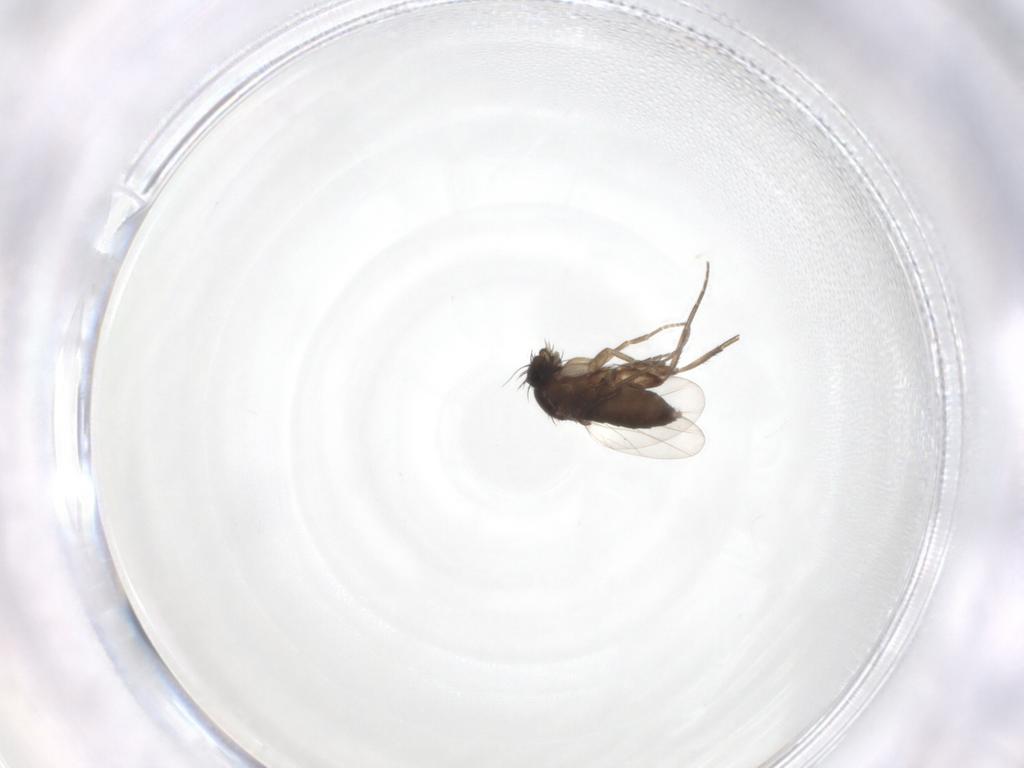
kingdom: Animalia
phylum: Arthropoda
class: Insecta
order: Diptera
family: Phoridae
